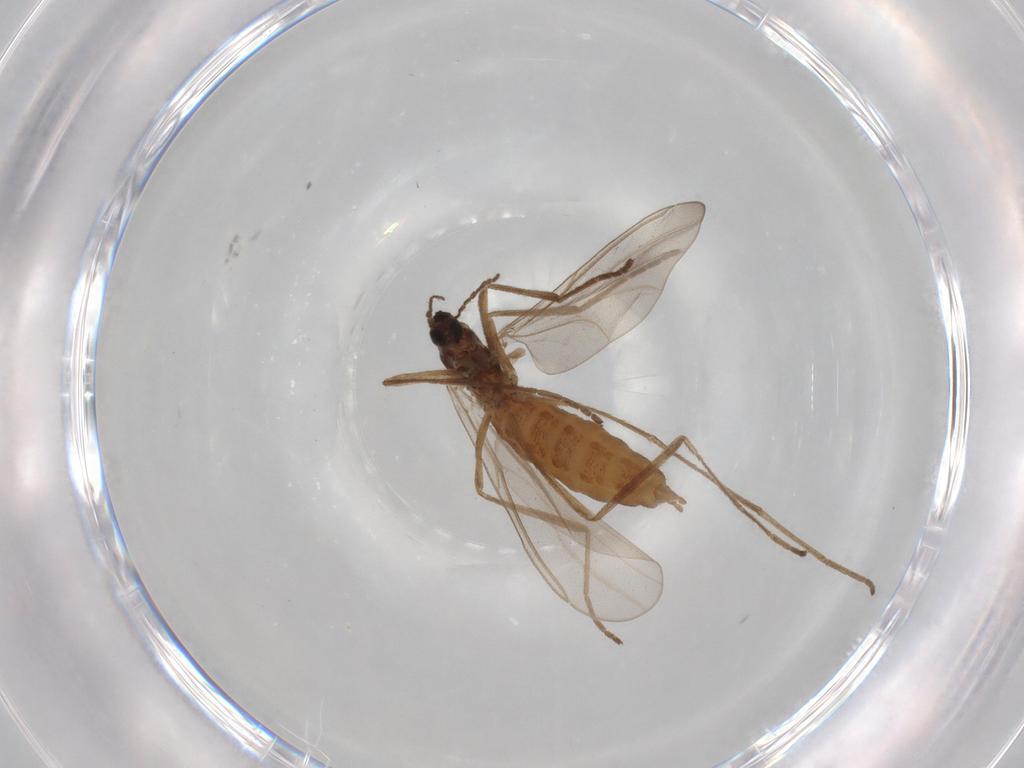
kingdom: Animalia
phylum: Arthropoda
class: Insecta
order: Diptera
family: Cecidomyiidae
